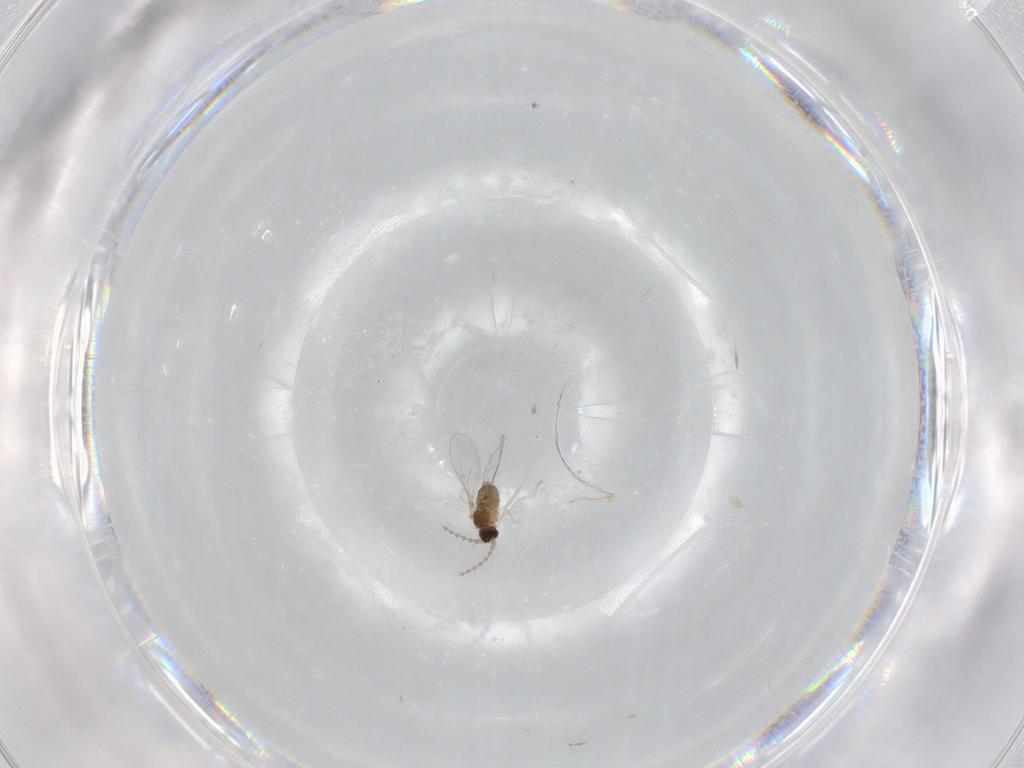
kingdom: Animalia
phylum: Arthropoda
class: Insecta
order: Diptera
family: Cecidomyiidae
